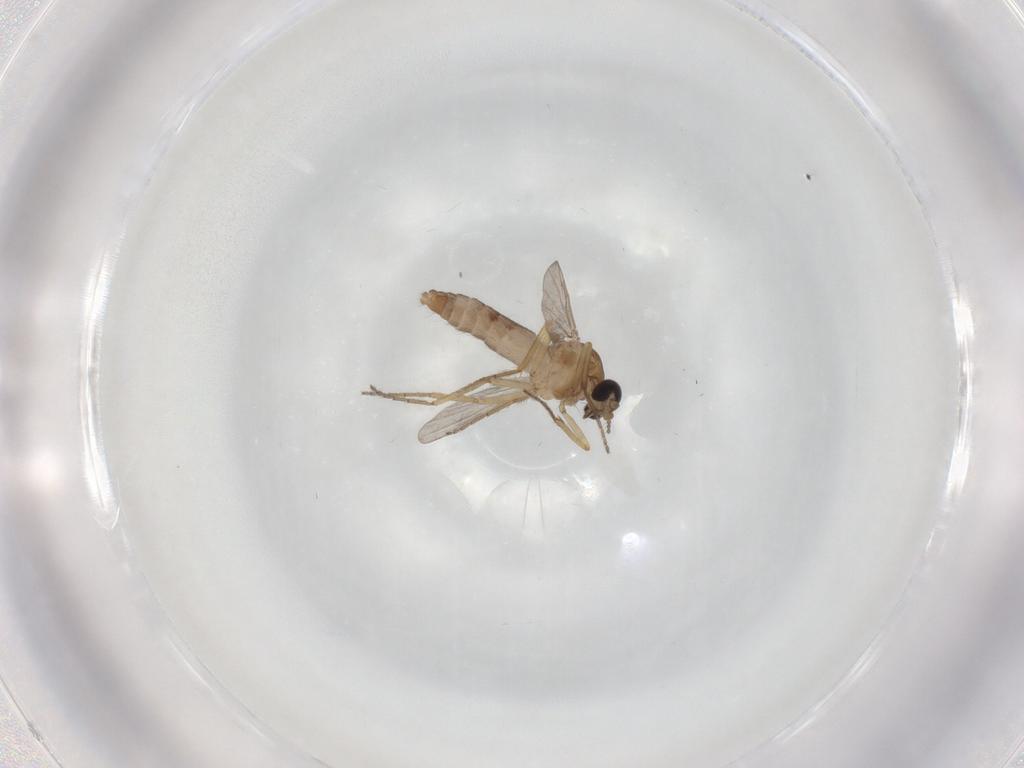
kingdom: Animalia
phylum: Arthropoda
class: Insecta
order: Diptera
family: Ceratopogonidae
